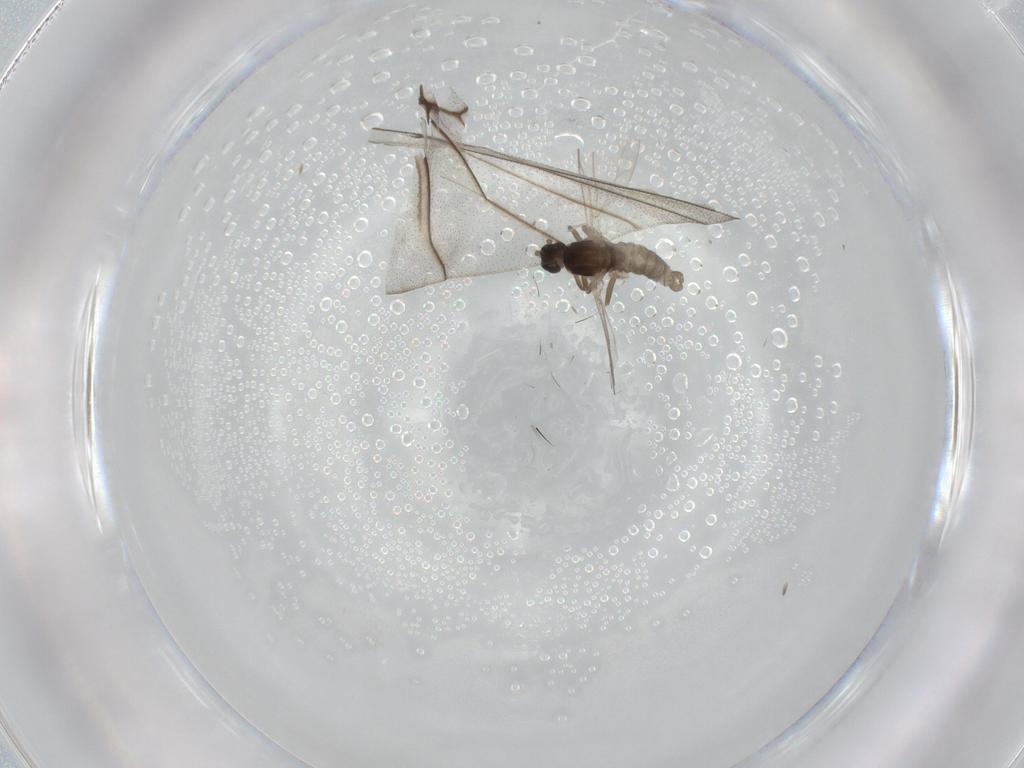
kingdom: Animalia
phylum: Arthropoda
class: Insecta
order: Diptera
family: Cecidomyiidae
